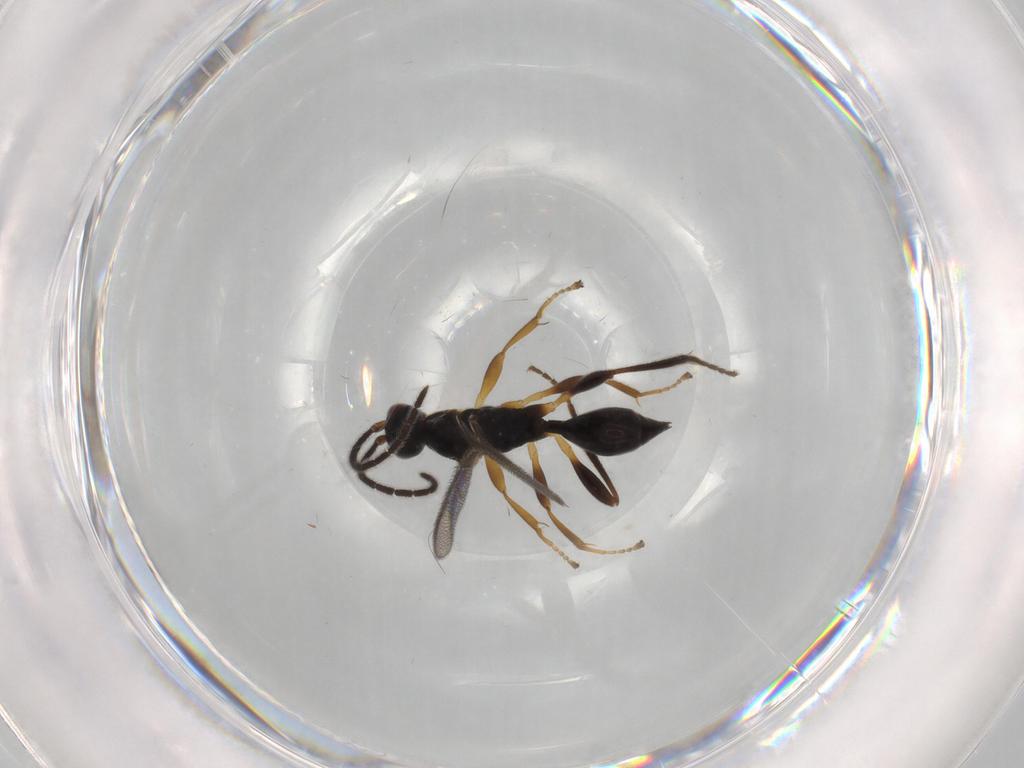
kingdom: Animalia
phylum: Arthropoda
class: Insecta
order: Hymenoptera
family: Proctotrupidae
